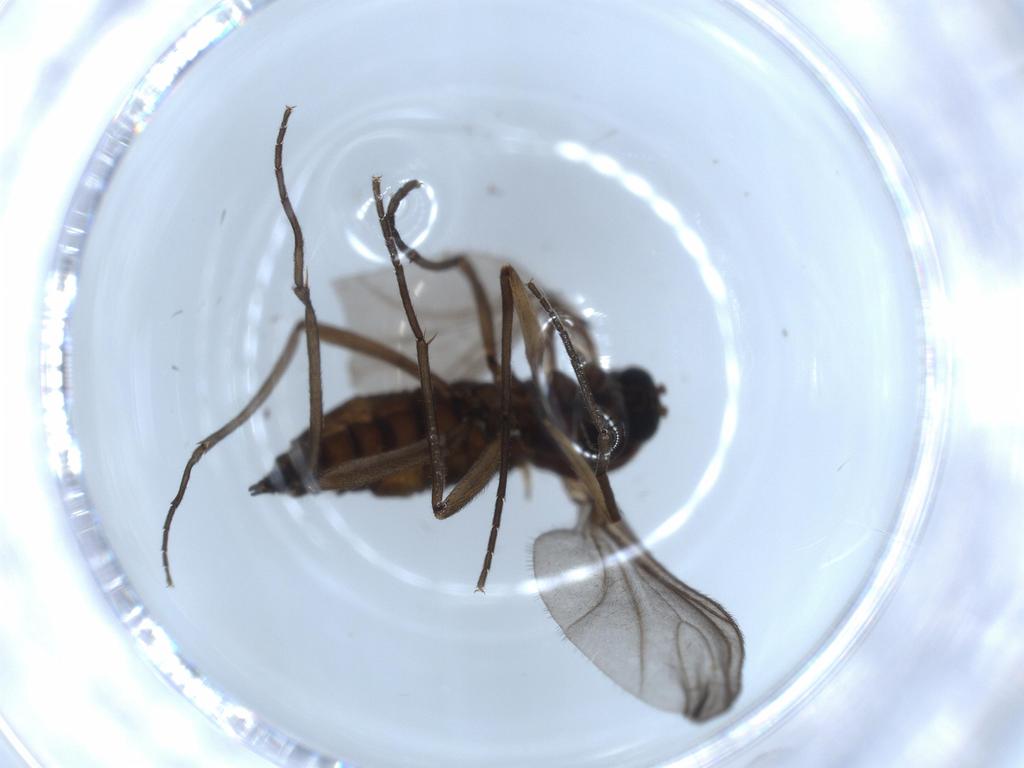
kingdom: Animalia
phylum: Arthropoda
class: Insecta
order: Diptera
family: Sciaridae
